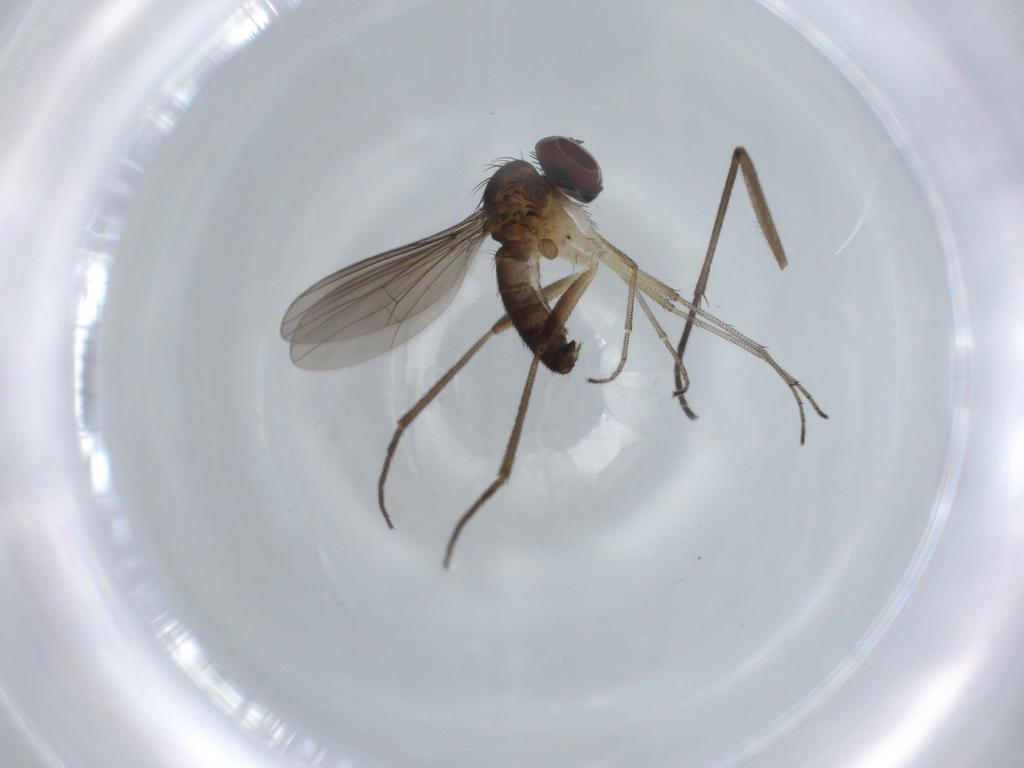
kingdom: Animalia
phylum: Arthropoda
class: Insecta
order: Diptera
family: Sciaridae
